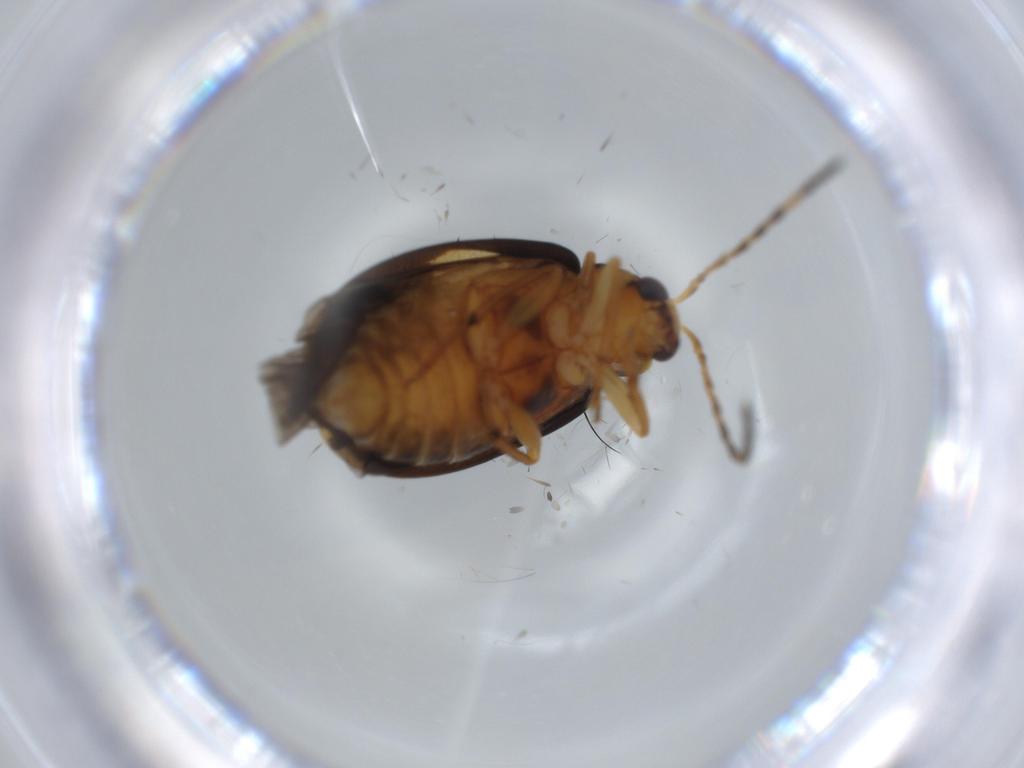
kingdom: Animalia
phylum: Arthropoda
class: Insecta
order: Coleoptera
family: Chrysomelidae
